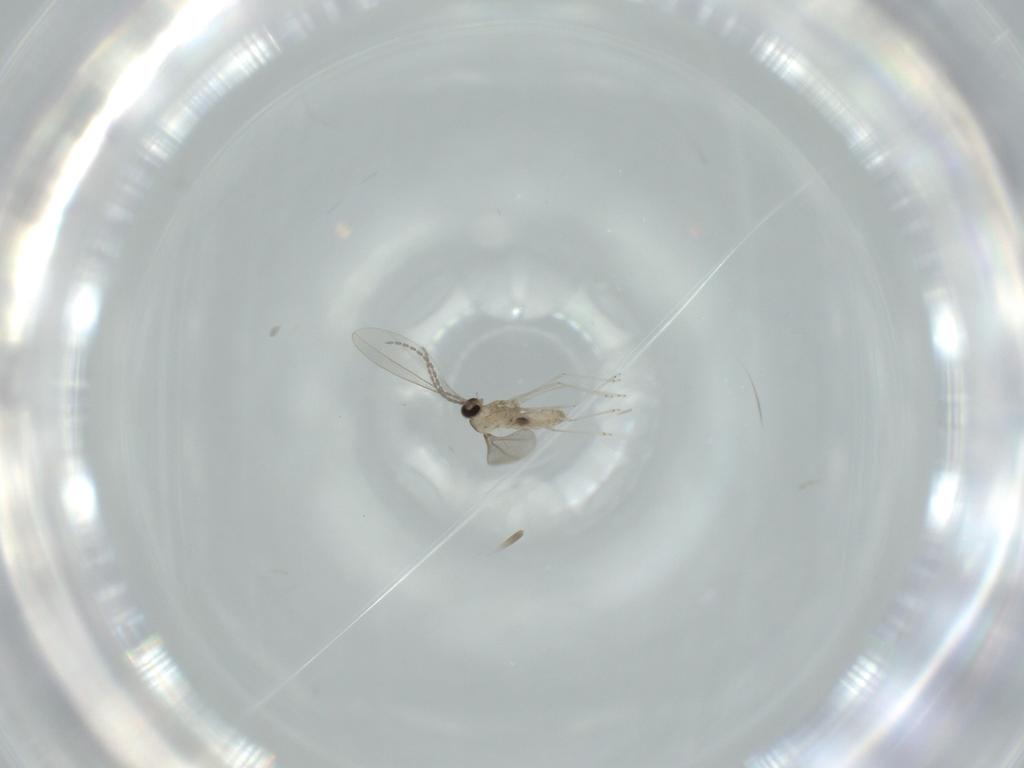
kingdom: Animalia
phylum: Arthropoda
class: Insecta
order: Diptera
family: Cecidomyiidae
